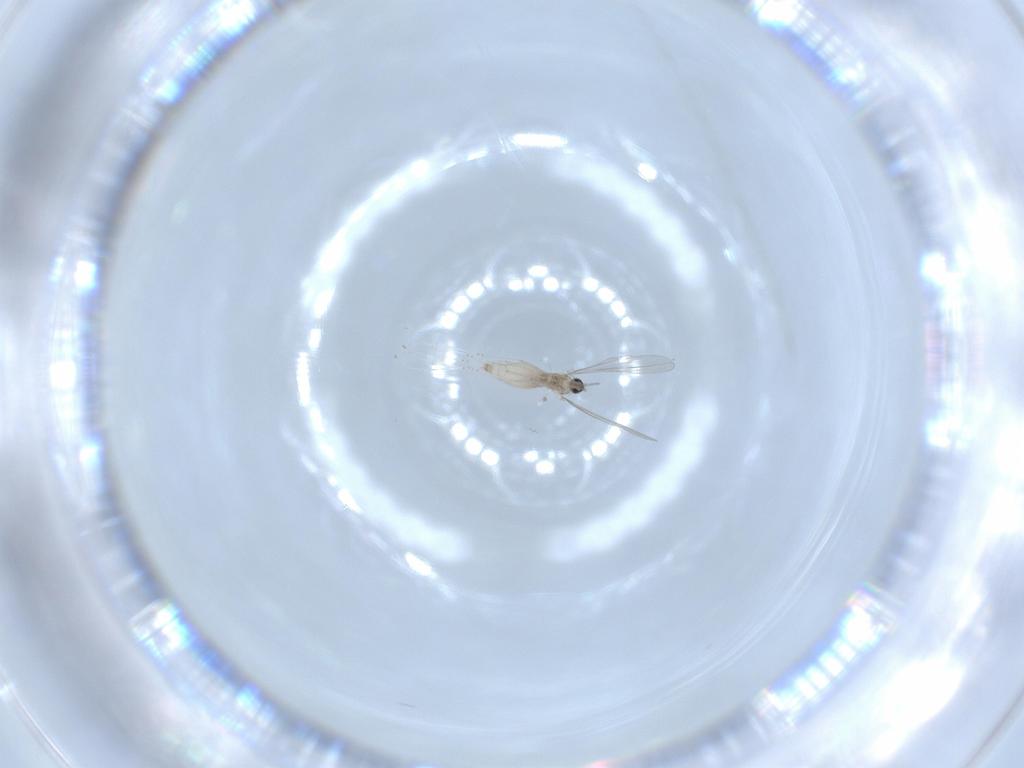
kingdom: Animalia
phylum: Arthropoda
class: Insecta
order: Diptera
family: Cecidomyiidae
